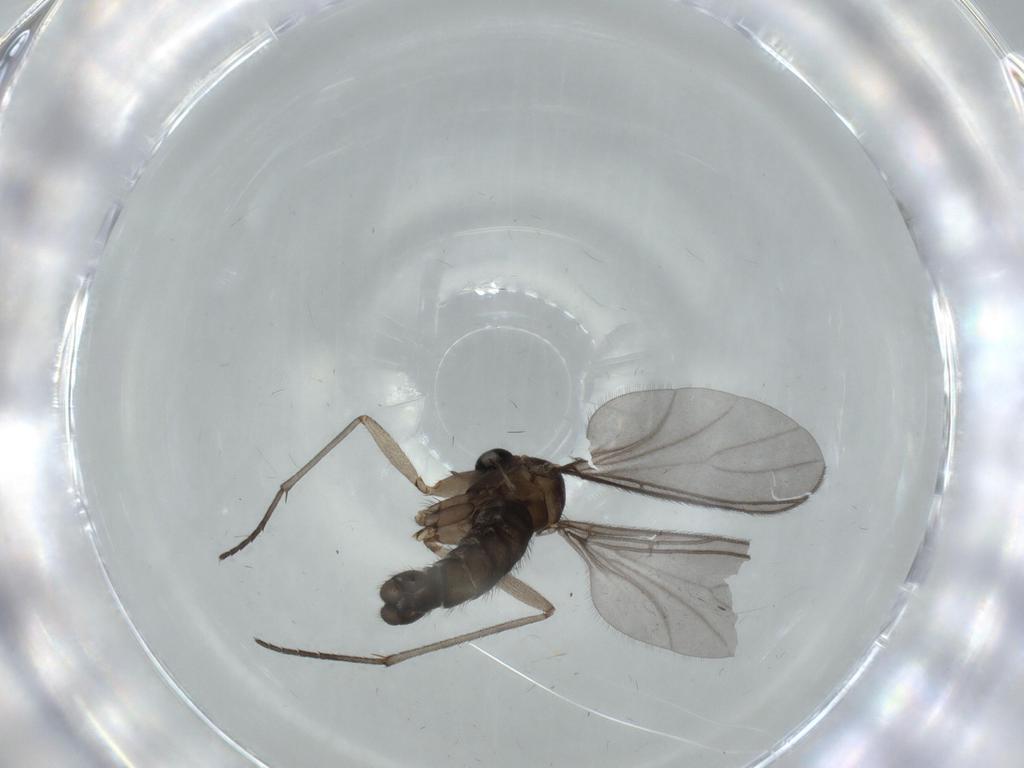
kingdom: Animalia
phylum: Arthropoda
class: Insecta
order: Diptera
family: Sciaridae
